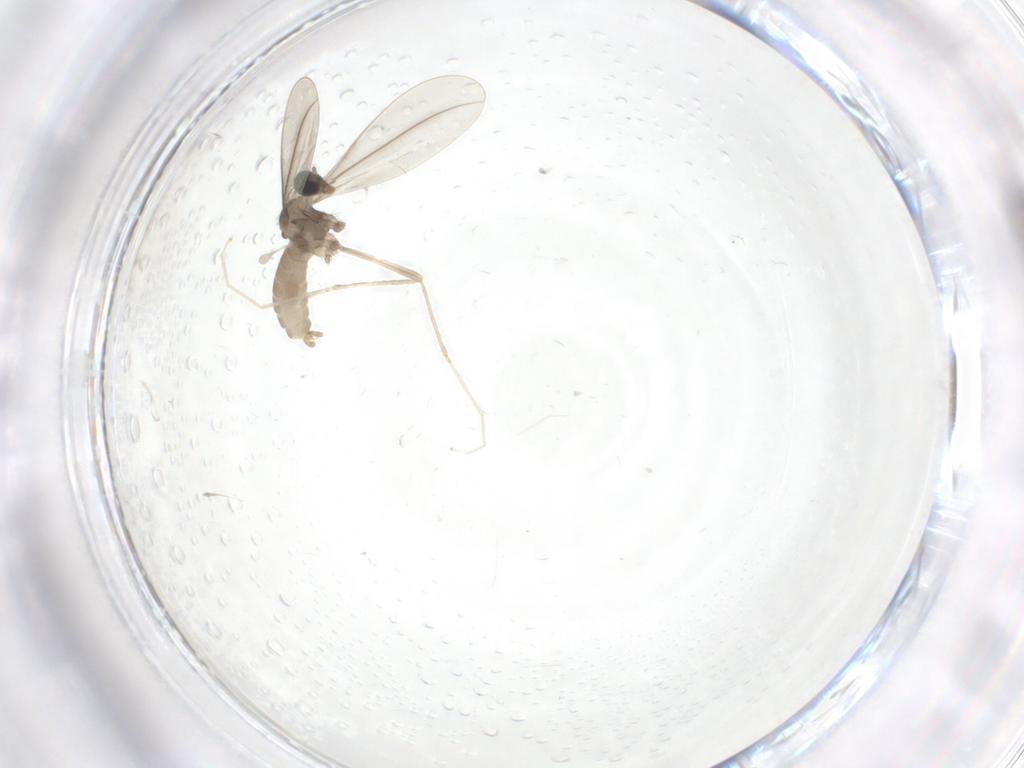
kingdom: Animalia
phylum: Arthropoda
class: Insecta
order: Diptera
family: Cecidomyiidae
